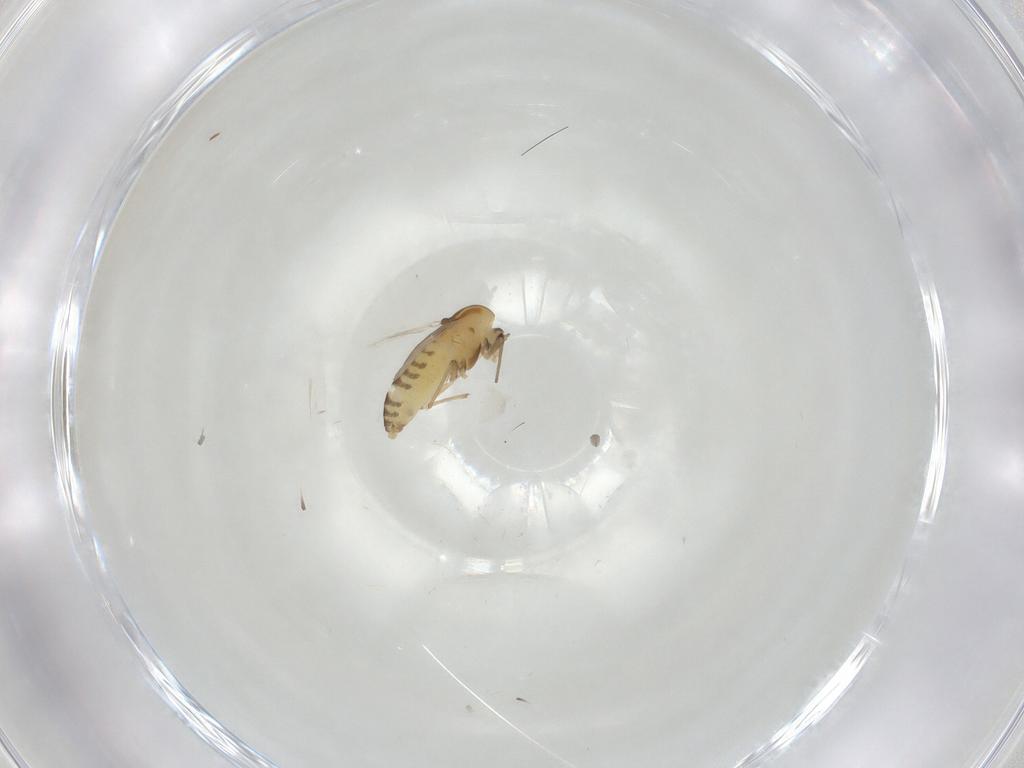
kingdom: Animalia
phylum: Arthropoda
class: Insecta
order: Diptera
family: Chironomidae
